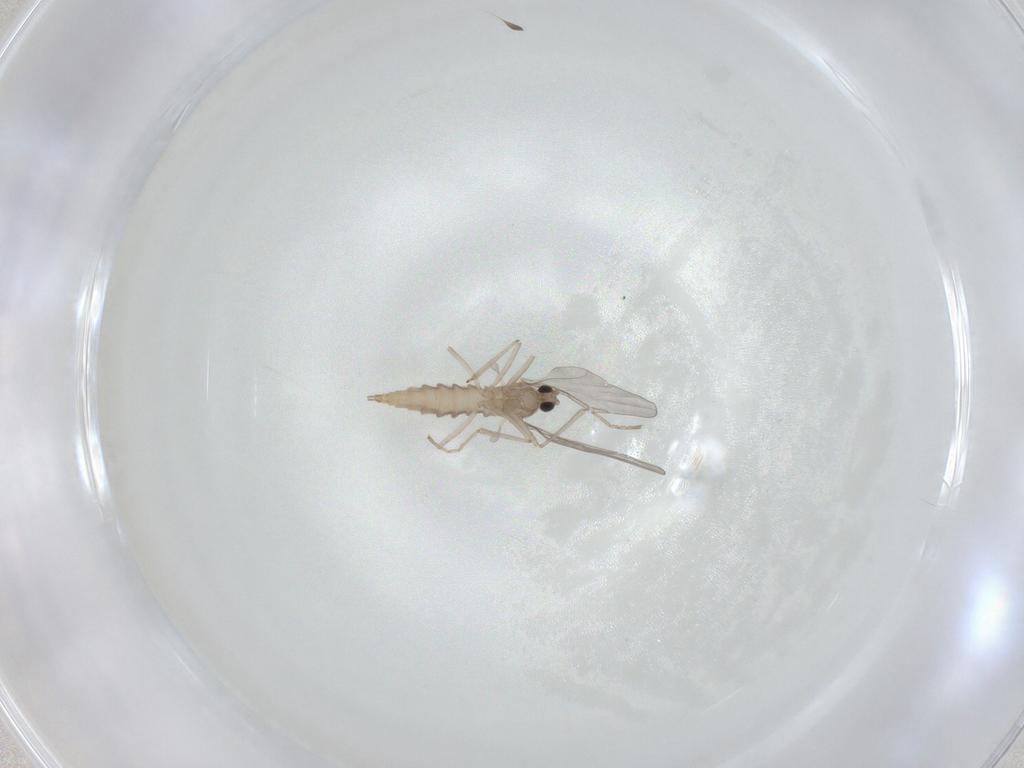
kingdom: Animalia
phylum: Arthropoda
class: Insecta
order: Diptera
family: Cecidomyiidae
